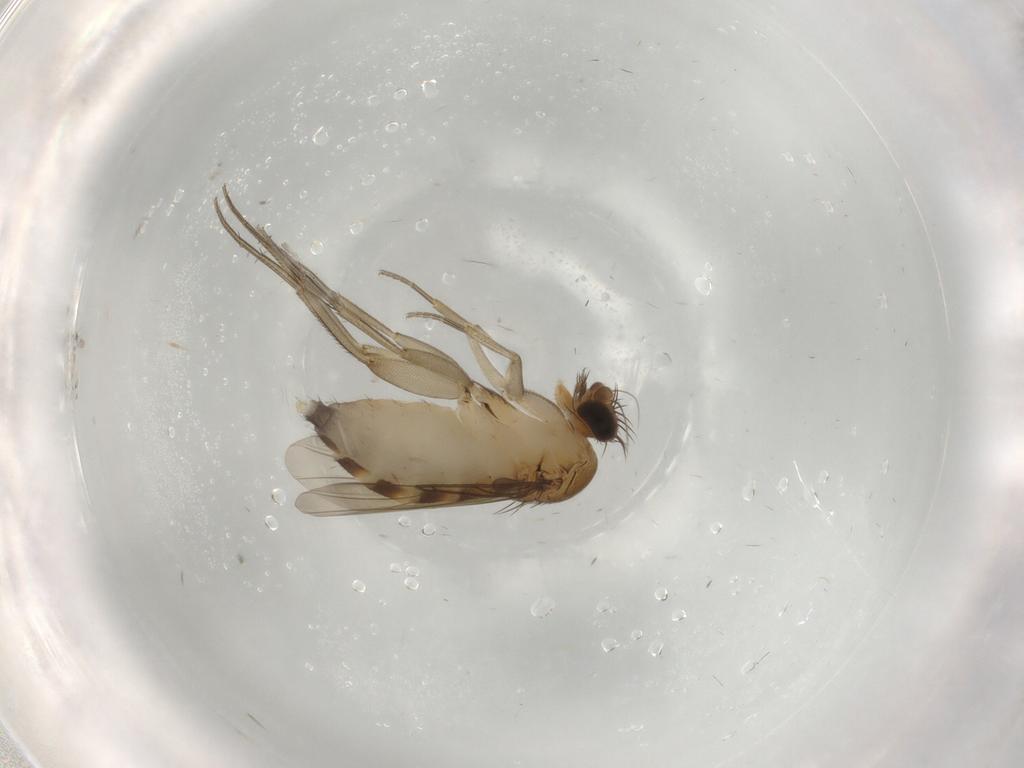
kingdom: Animalia
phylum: Arthropoda
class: Insecta
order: Diptera
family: Phoridae
